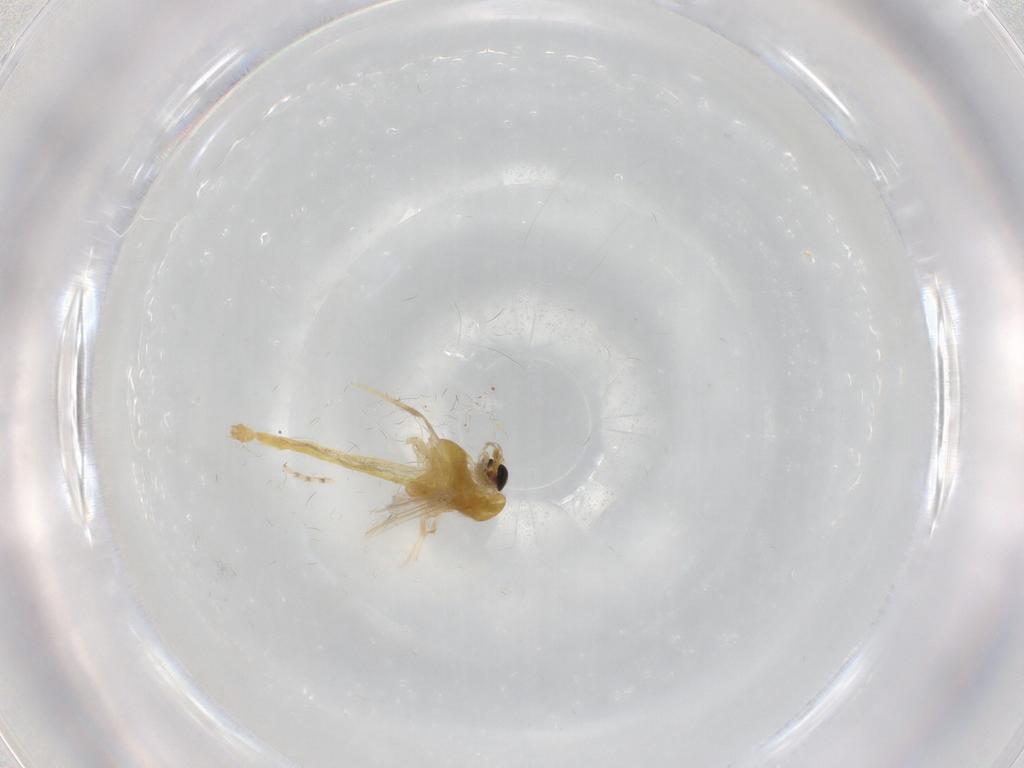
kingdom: Animalia
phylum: Arthropoda
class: Insecta
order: Diptera
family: Chironomidae
